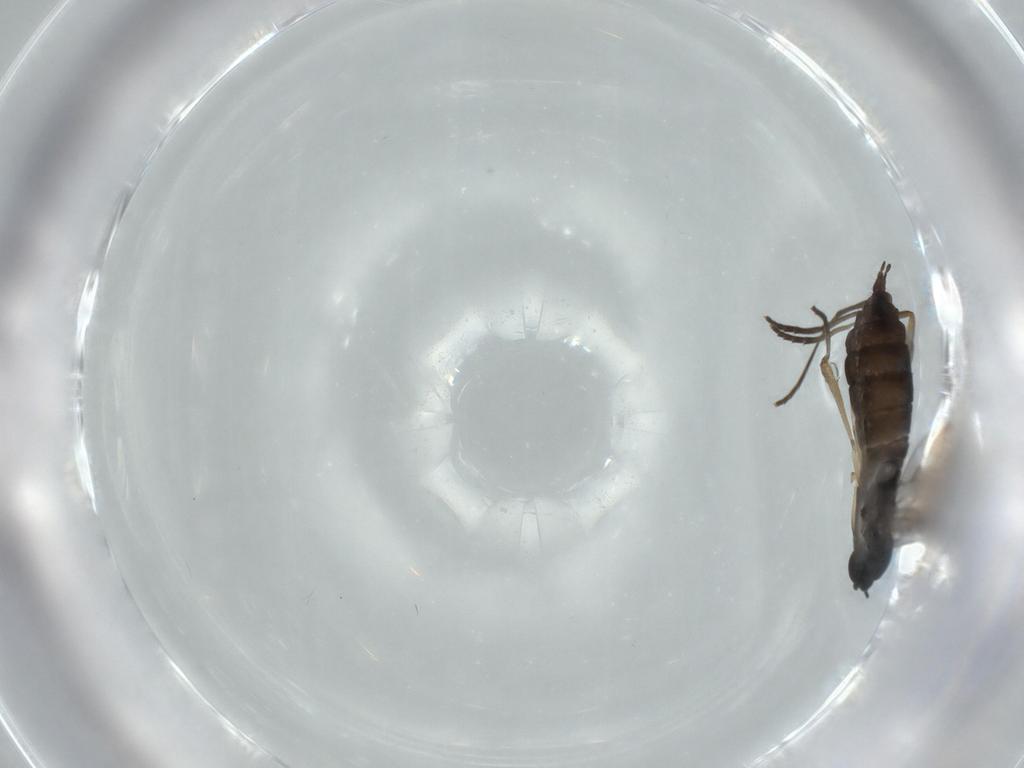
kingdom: Animalia
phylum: Arthropoda
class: Insecta
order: Diptera
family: Sciaridae
